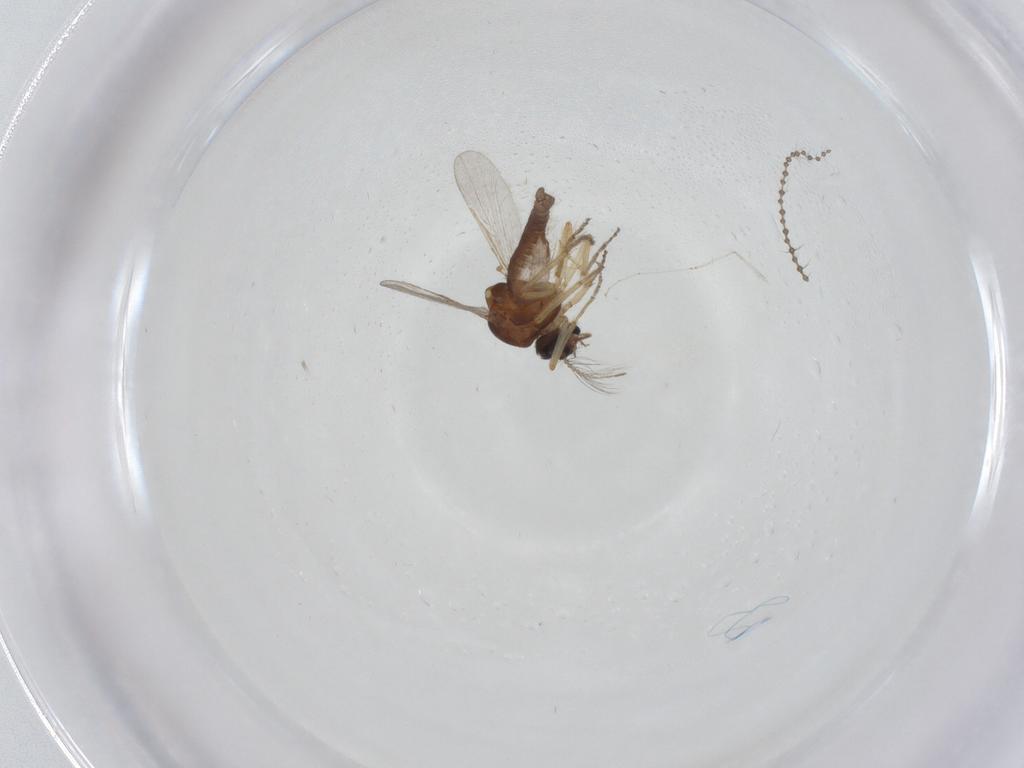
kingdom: Animalia
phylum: Arthropoda
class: Insecta
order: Diptera
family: Ceratopogonidae
